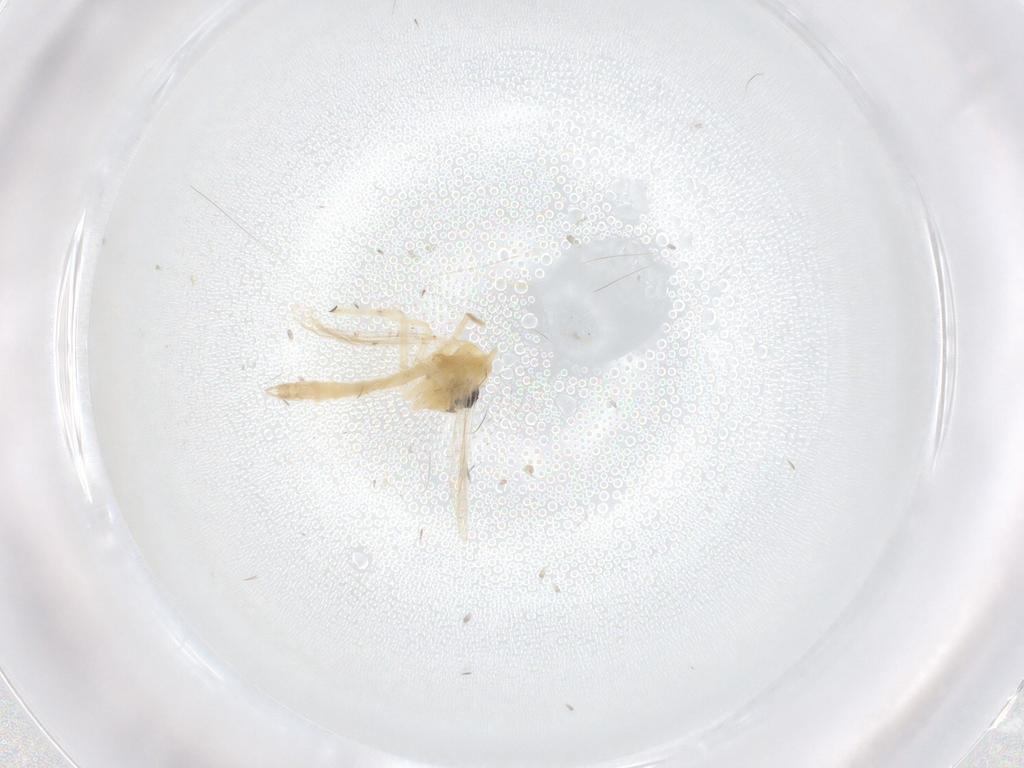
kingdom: Animalia
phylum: Arthropoda
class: Insecta
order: Diptera
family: Chironomidae
